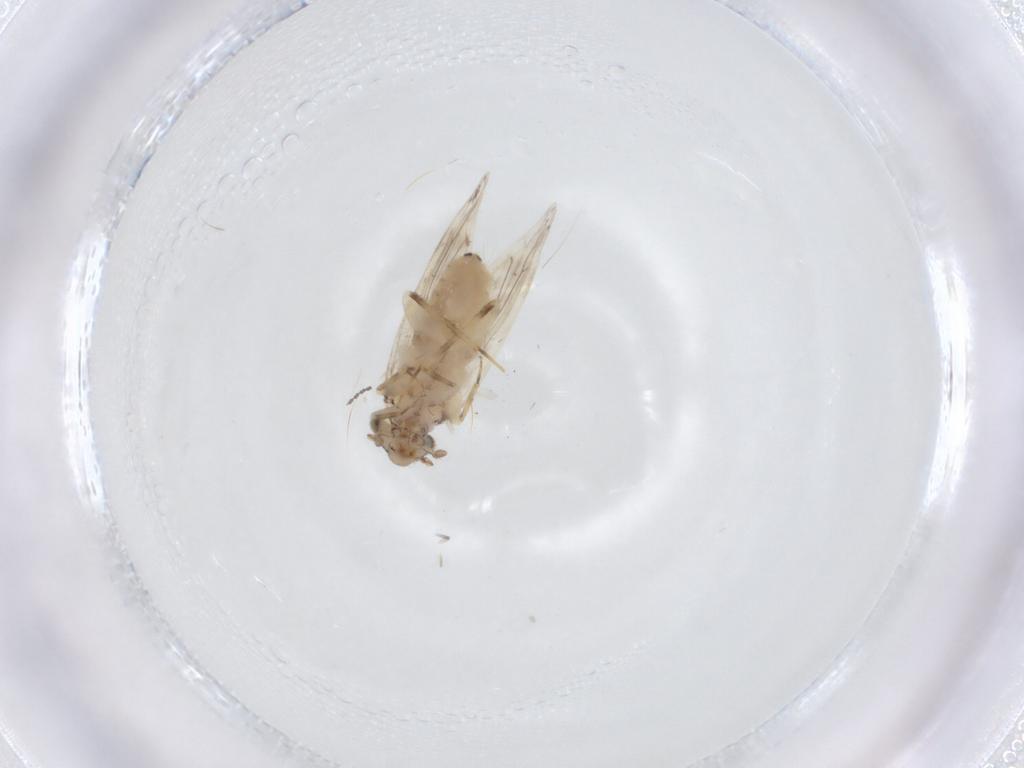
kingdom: Animalia
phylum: Arthropoda
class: Insecta
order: Psocodea
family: Lepidopsocidae
